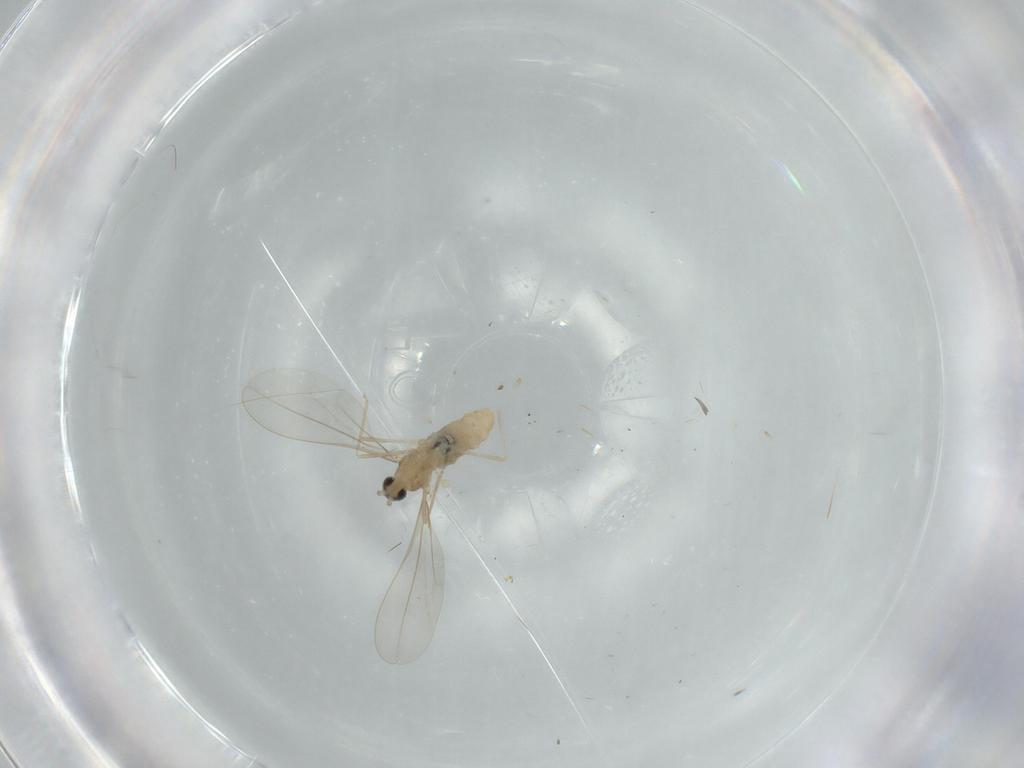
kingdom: Animalia
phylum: Arthropoda
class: Insecta
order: Diptera
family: Cecidomyiidae
